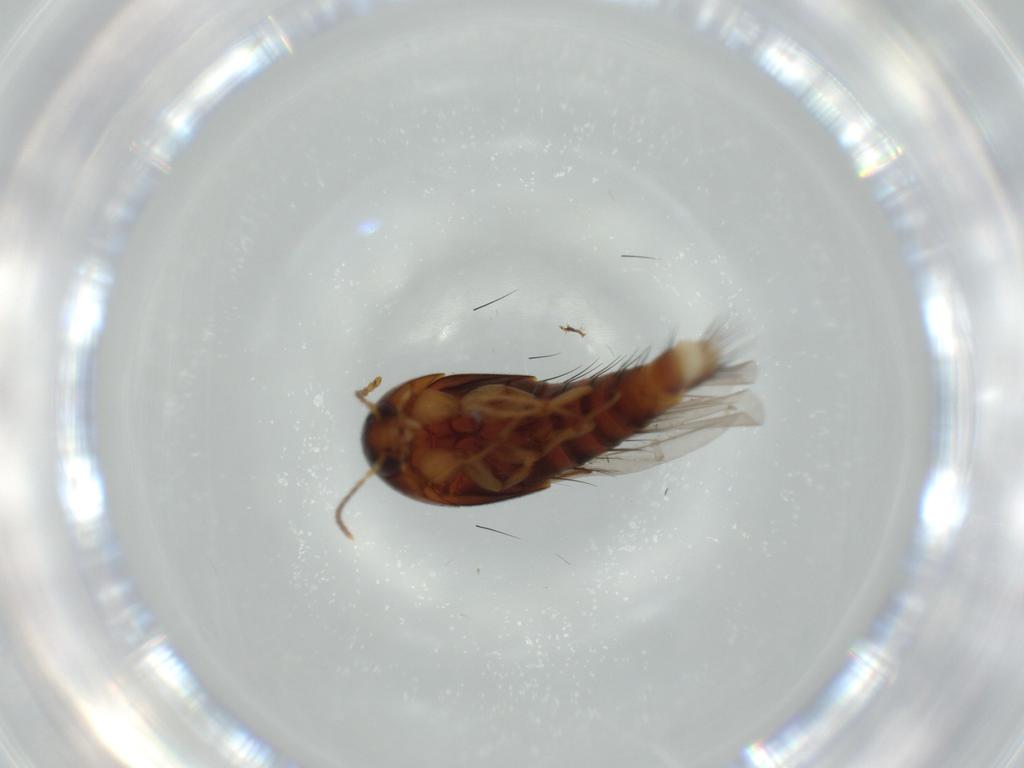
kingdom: Animalia
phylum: Arthropoda
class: Insecta
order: Coleoptera
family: Staphylinidae
